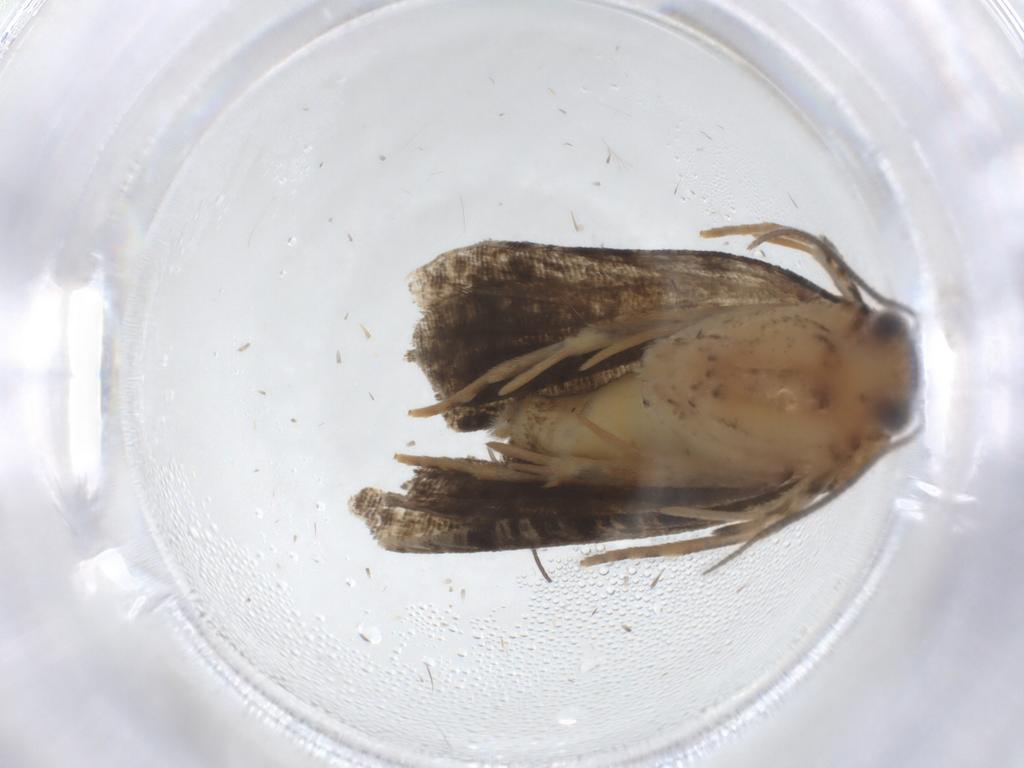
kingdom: Animalia
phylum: Arthropoda
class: Insecta
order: Lepidoptera
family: Tortricidae
